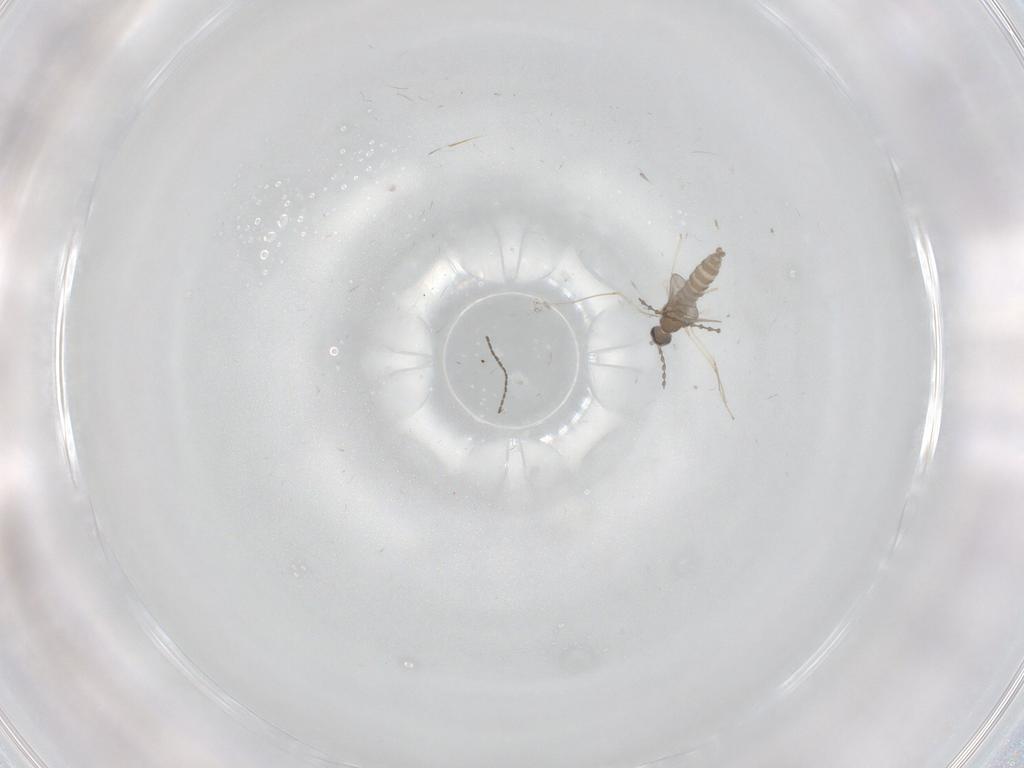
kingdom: Animalia
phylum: Arthropoda
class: Insecta
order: Diptera
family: Cecidomyiidae
